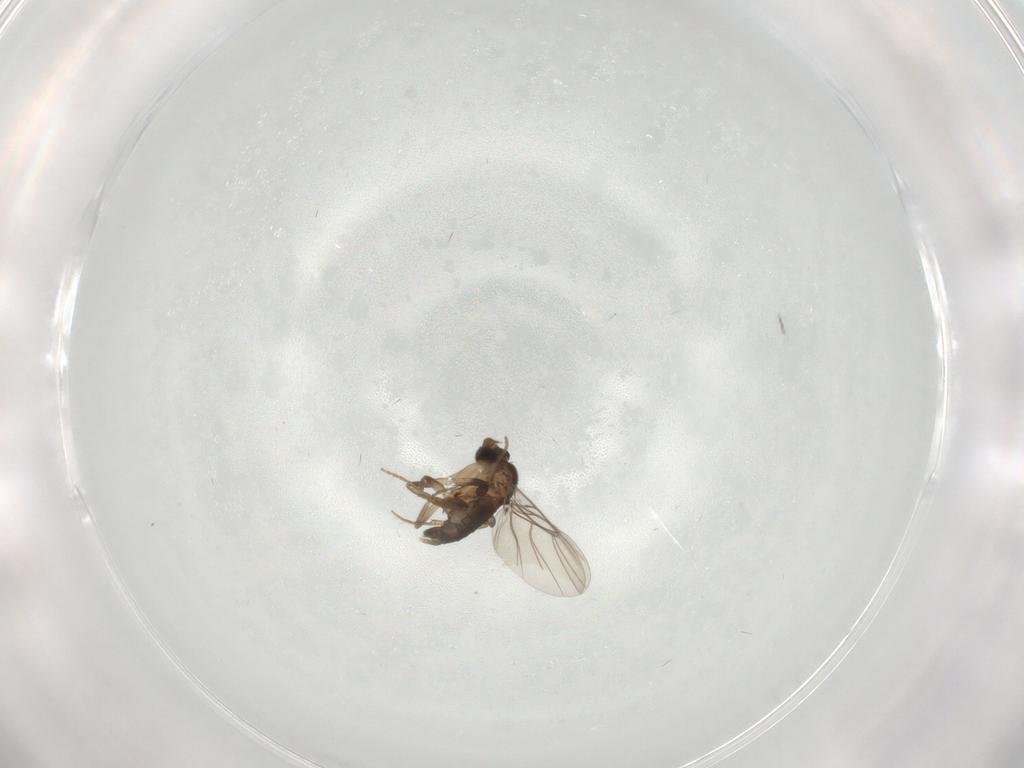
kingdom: Animalia
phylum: Arthropoda
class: Insecta
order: Diptera
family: Phoridae
